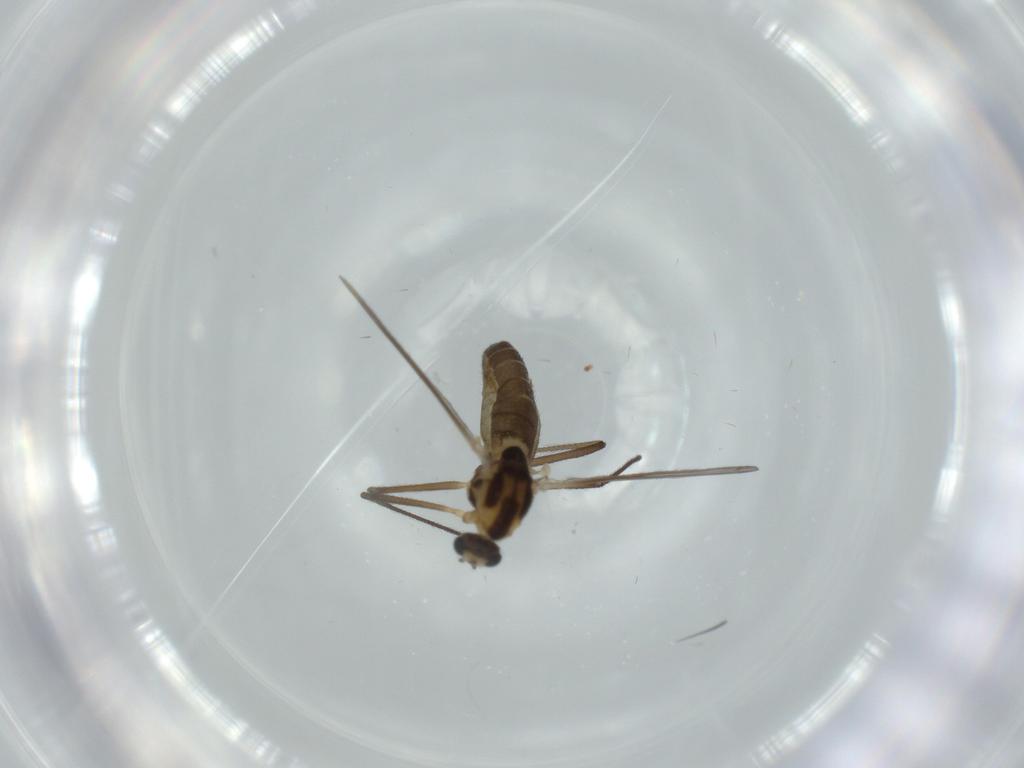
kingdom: Animalia
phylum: Arthropoda
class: Insecta
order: Diptera
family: Chironomidae
